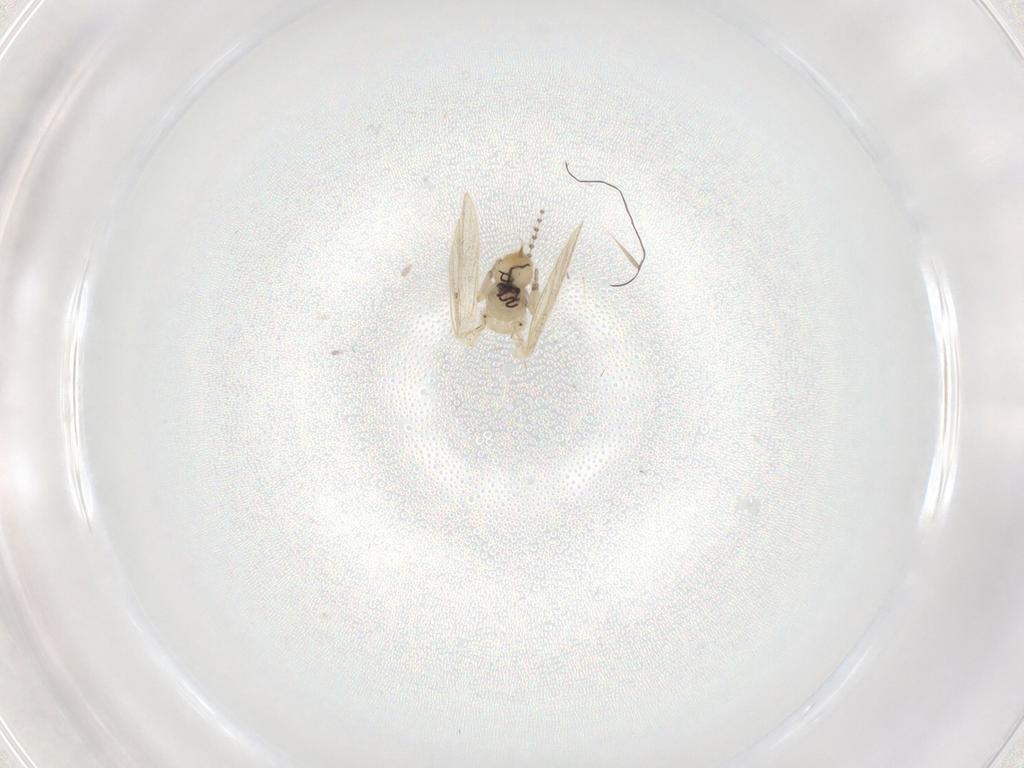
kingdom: Animalia
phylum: Arthropoda
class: Insecta
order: Diptera
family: Psychodidae
